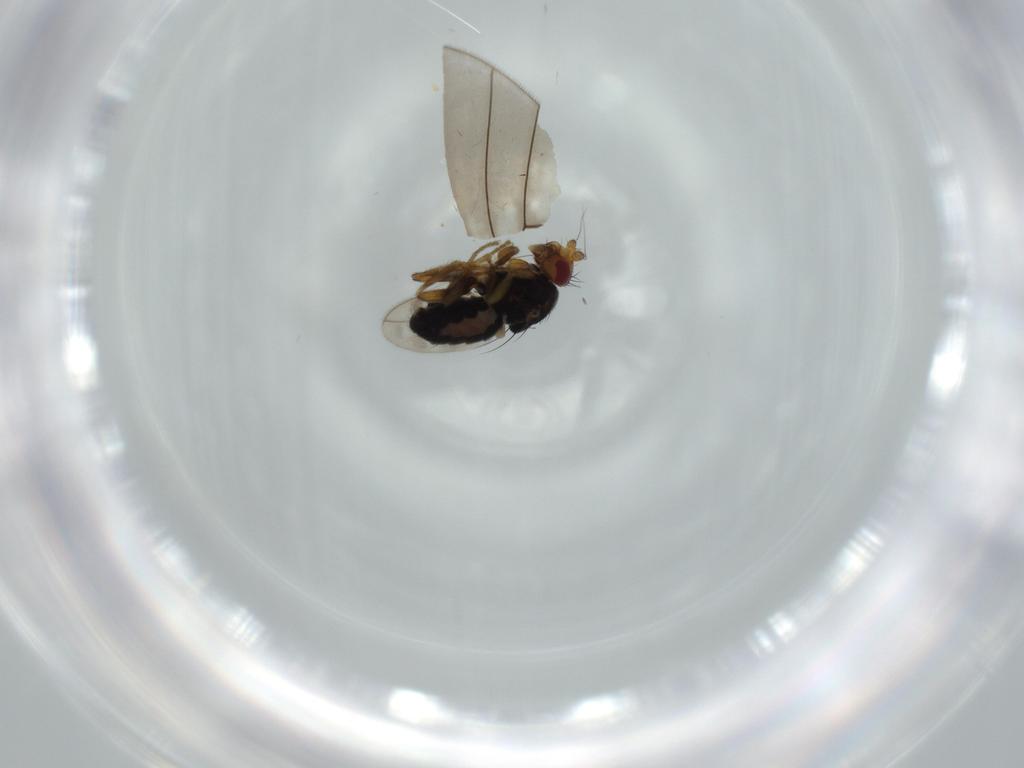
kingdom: Animalia
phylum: Arthropoda
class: Insecta
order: Diptera
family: Sphaeroceridae
